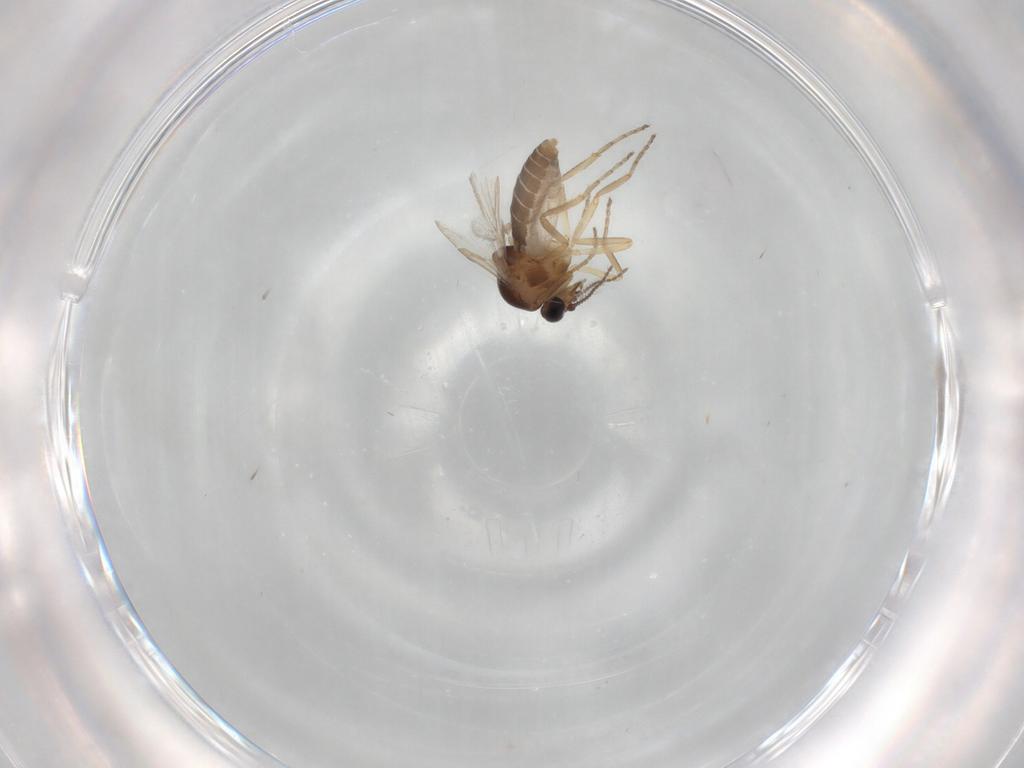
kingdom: Animalia
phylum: Arthropoda
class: Insecta
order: Diptera
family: Ceratopogonidae
